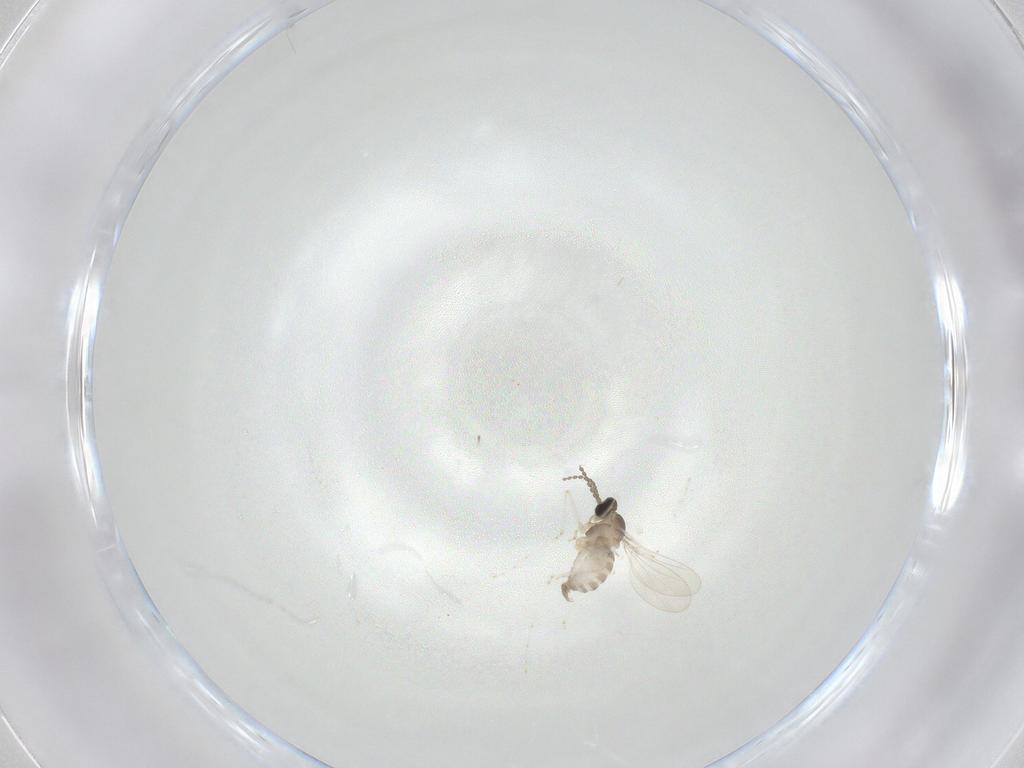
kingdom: Animalia
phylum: Arthropoda
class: Insecta
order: Diptera
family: Cecidomyiidae
